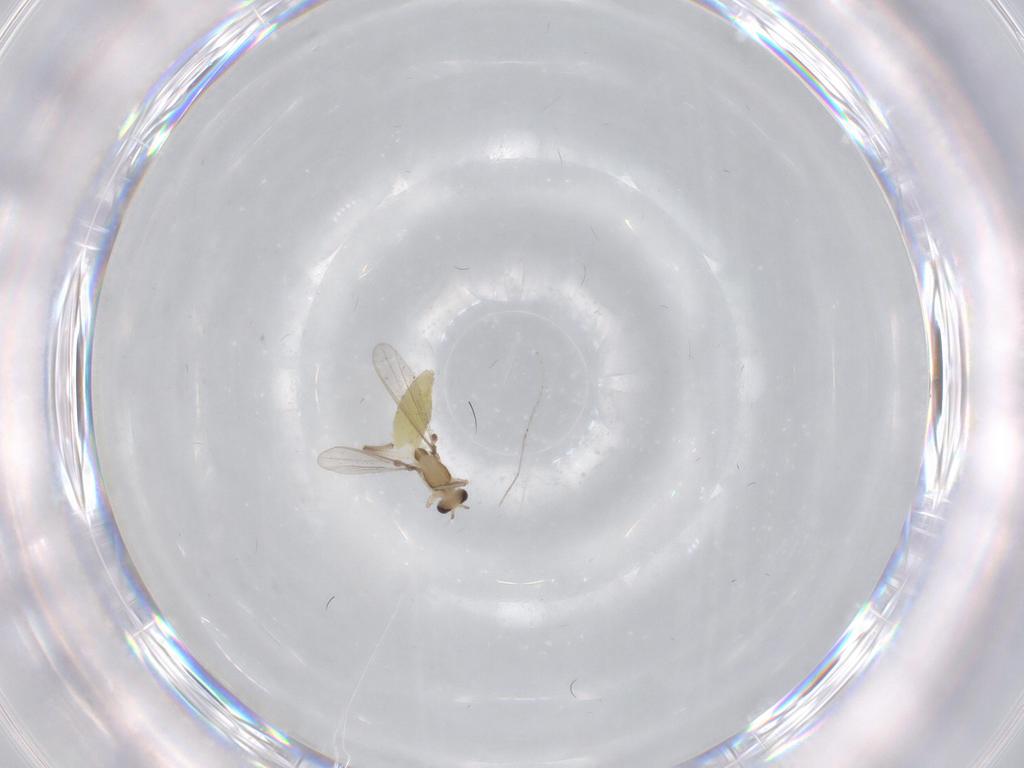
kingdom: Animalia
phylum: Arthropoda
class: Insecta
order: Diptera
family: Chironomidae
